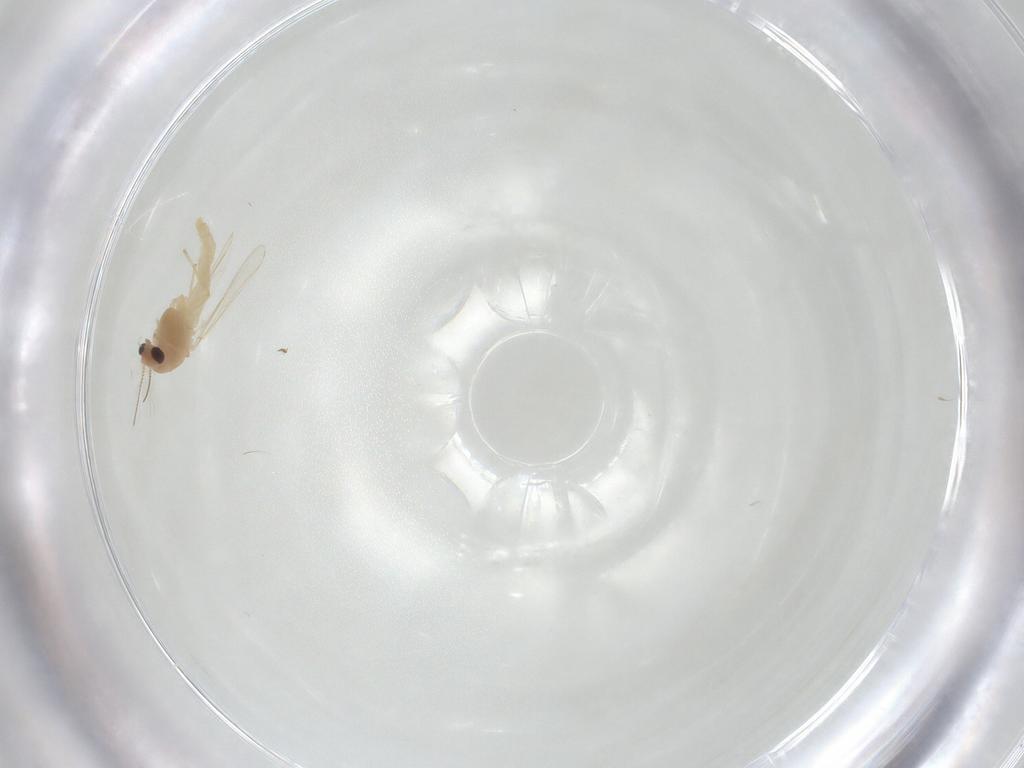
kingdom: Animalia
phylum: Arthropoda
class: Insecta
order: Diptera
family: Chironomidae
